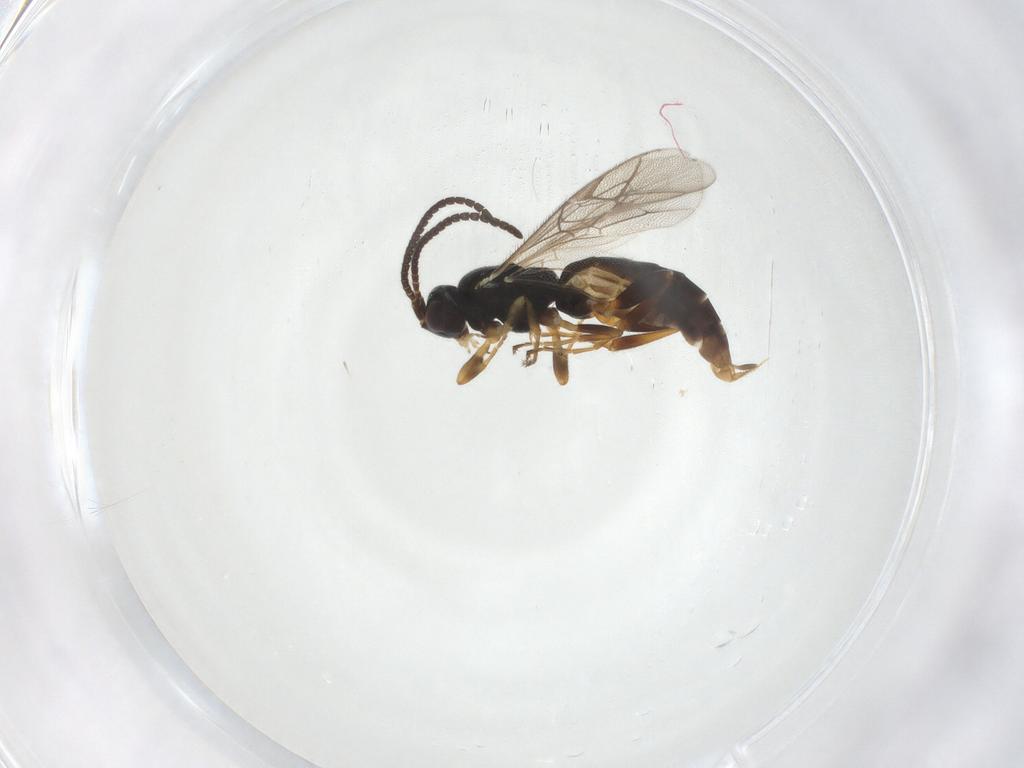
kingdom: Animalia
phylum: Arthropoda
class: Insecta
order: Hymenoptera
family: Ichneumonidae
